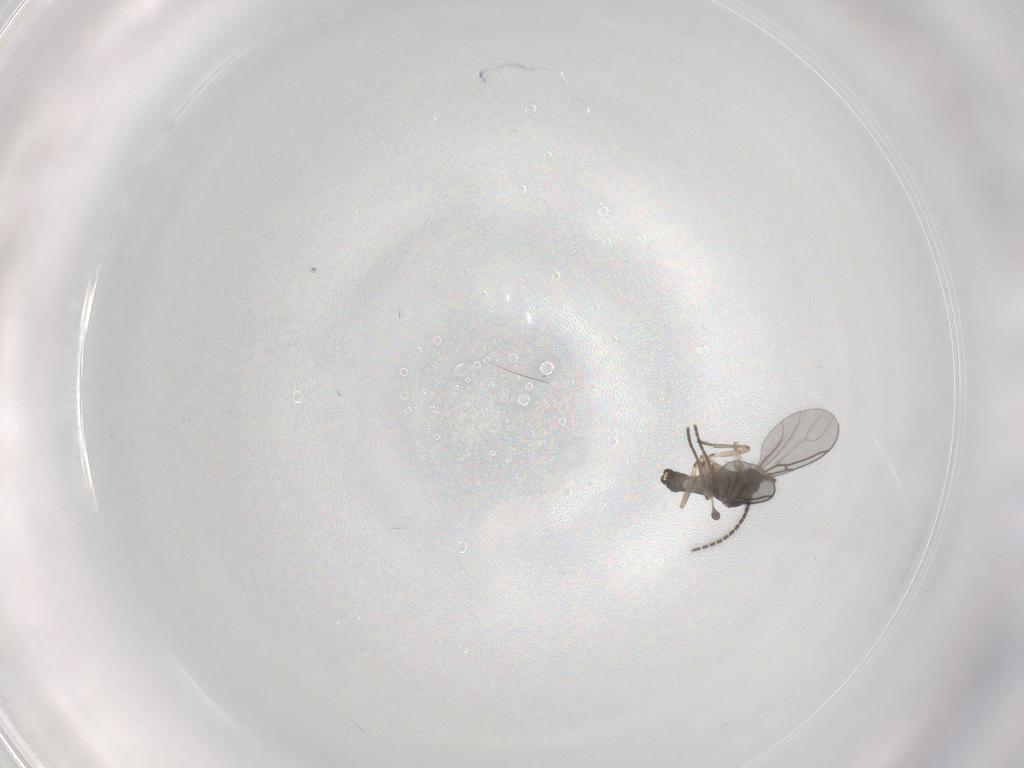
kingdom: Animalia
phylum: Arthropoda
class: Insecta
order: Diptera
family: Sciaridae
